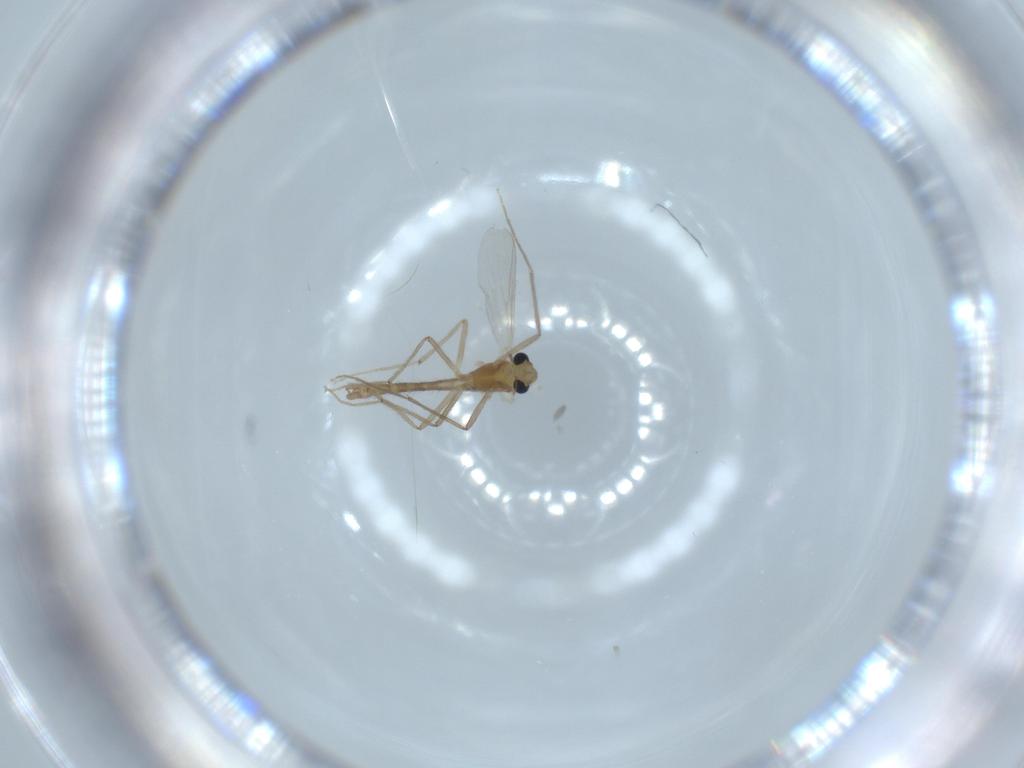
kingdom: Animalia
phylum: Arthropoda
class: Insecta
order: Diptera
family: Chironomidae
